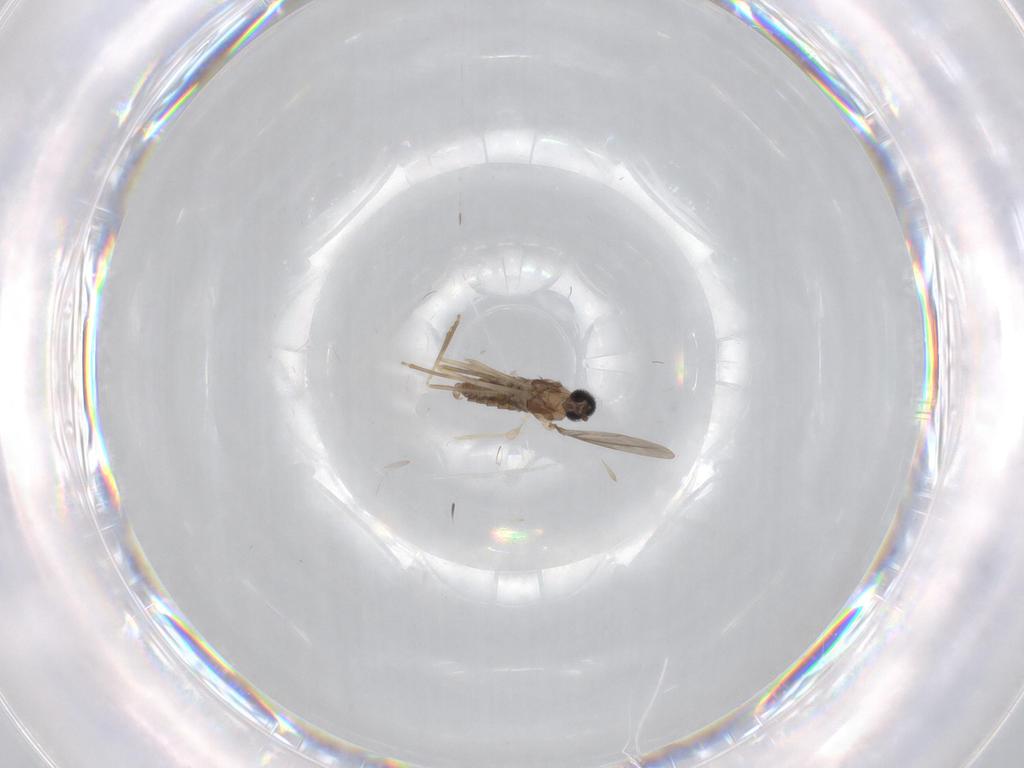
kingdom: Animalia
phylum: Arthropoda
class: Insecta
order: Diptera
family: Cecidomyiidae
